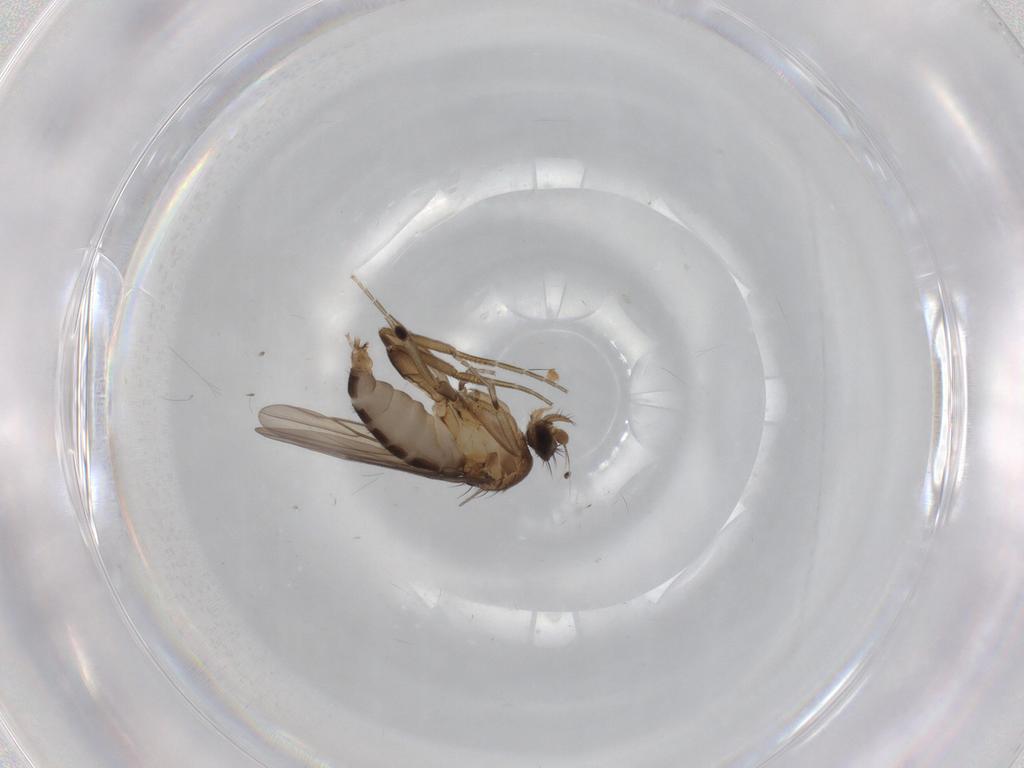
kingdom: Animalia
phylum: Arthropoda
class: Insecta
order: Diptera
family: Phoridae
